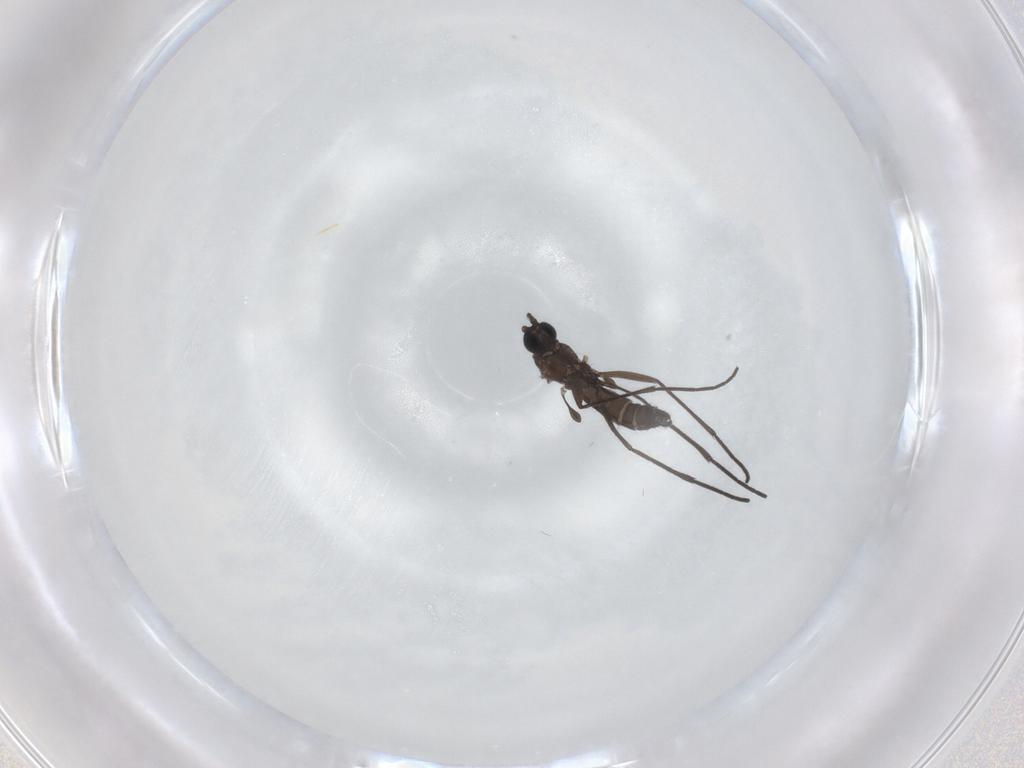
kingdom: Animalia
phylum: Arthropoda
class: Insecta
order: Diptera
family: Sciaridae
